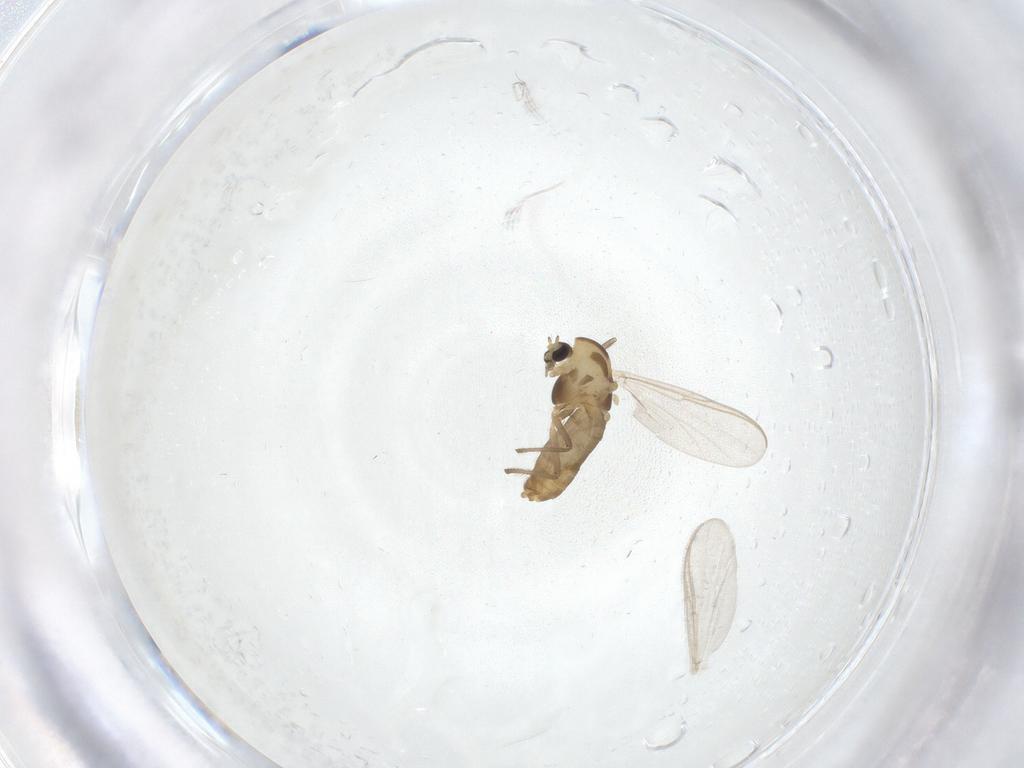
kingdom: Animalia
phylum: Arthropoda
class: Insecta
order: Diptera
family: Chironomidae
